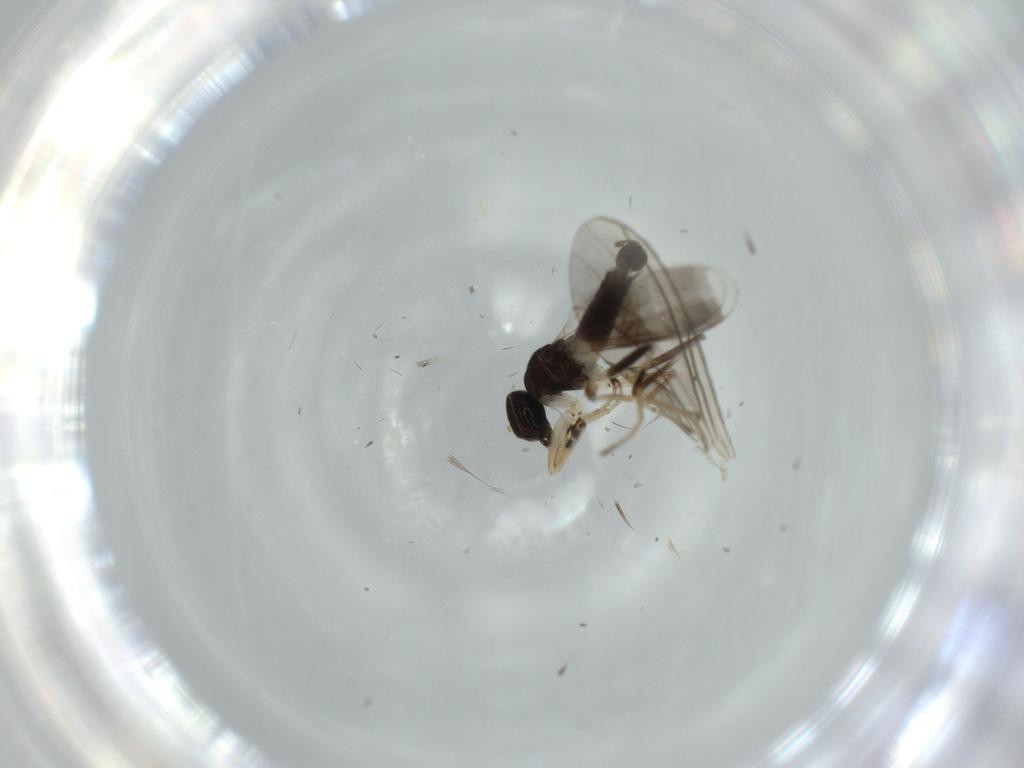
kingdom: Animalia
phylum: Arthropoda
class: Insecta
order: Diptera
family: Hybotidae
